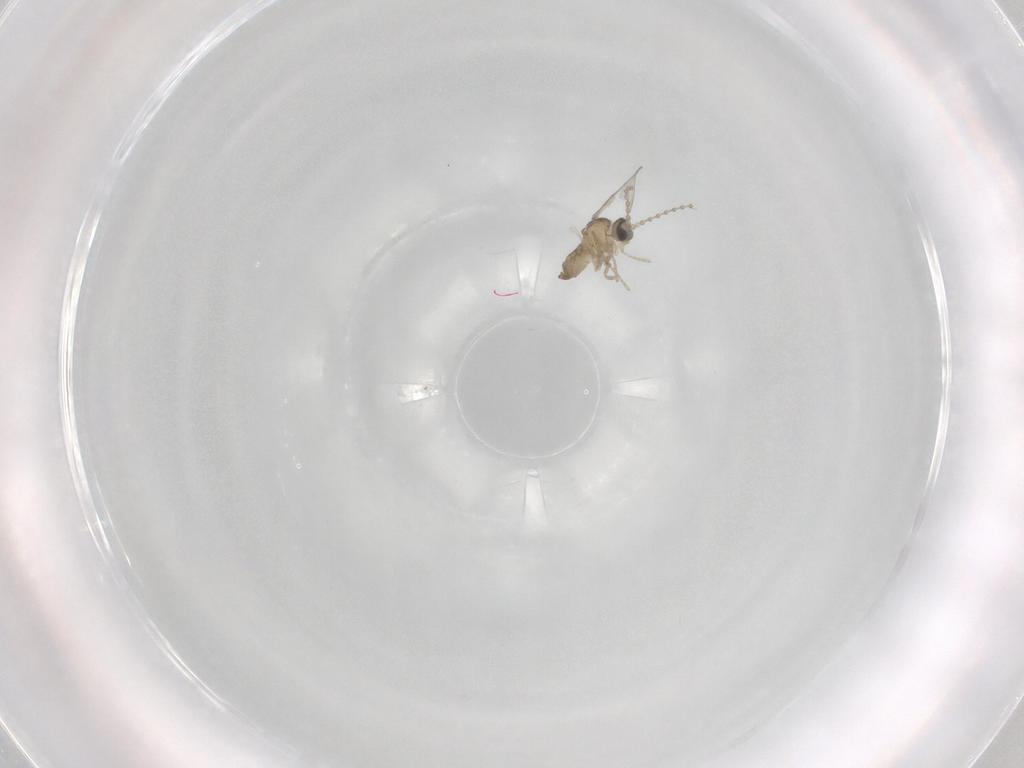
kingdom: Animalia
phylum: Arthropoda
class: Insecta
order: Diptera
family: Cecidomyiidae
